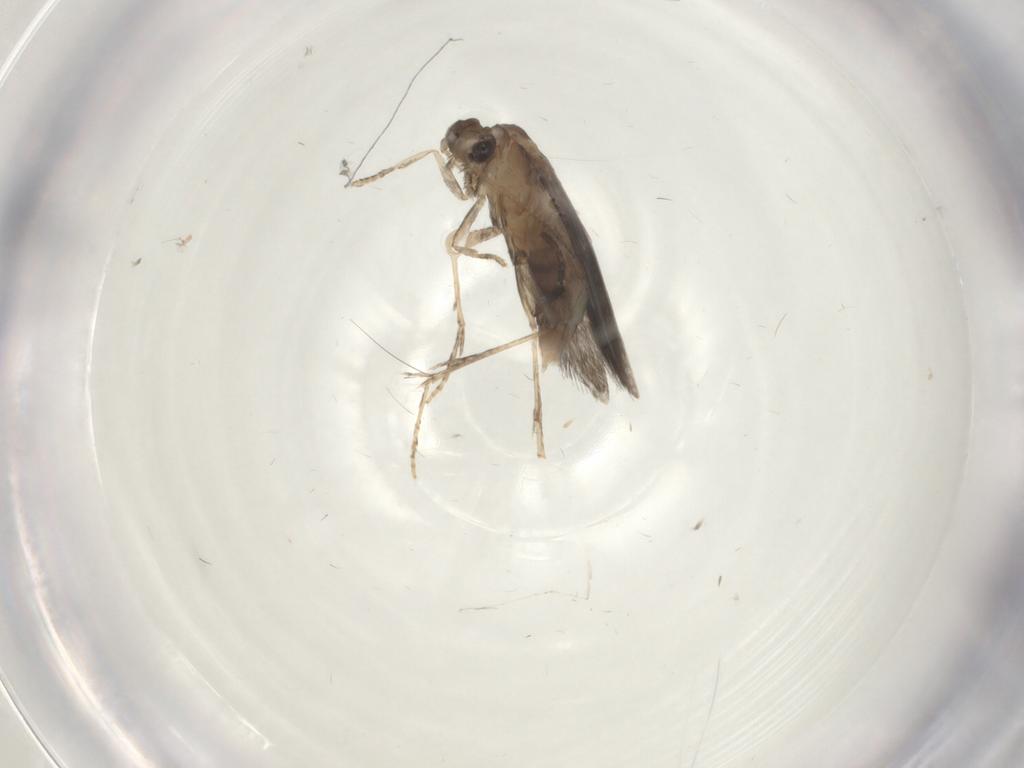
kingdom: Animalia
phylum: Arthropoda
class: Insecta
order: Trichoptera
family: Hydroptilidae
